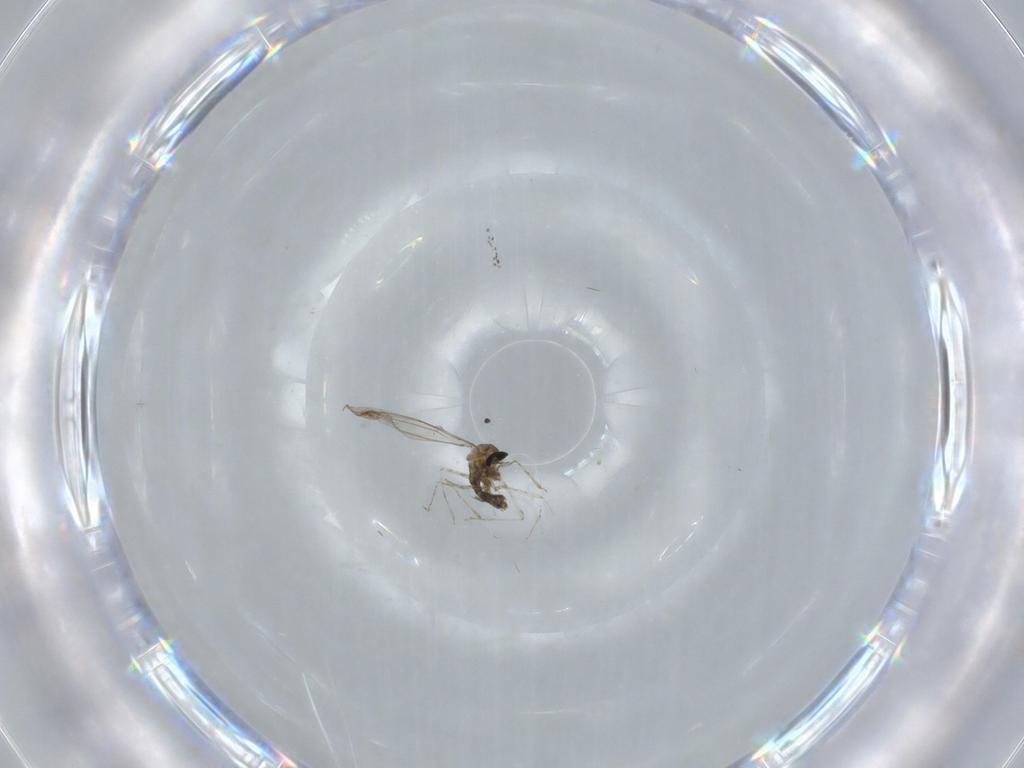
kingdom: Animalia
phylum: Arthropoda
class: Insecta
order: Diptera
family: Cecidomyiidae
